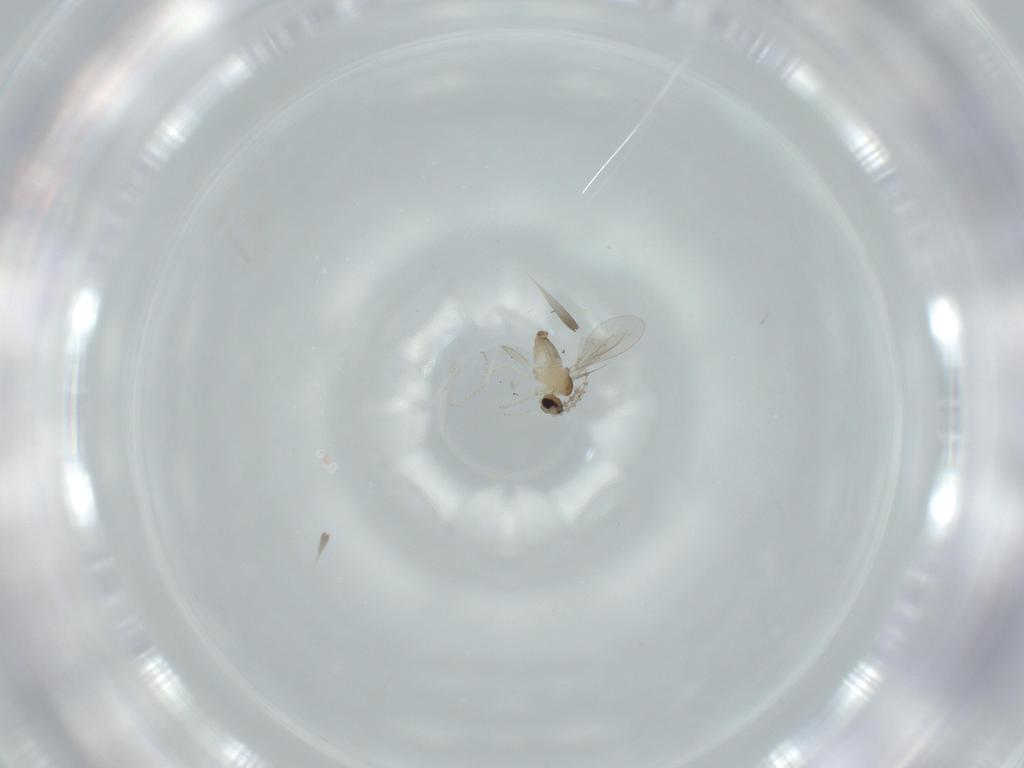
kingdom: Animalia
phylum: Arthropoda
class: Insecta
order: Diptera
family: Cecidomyiidae
